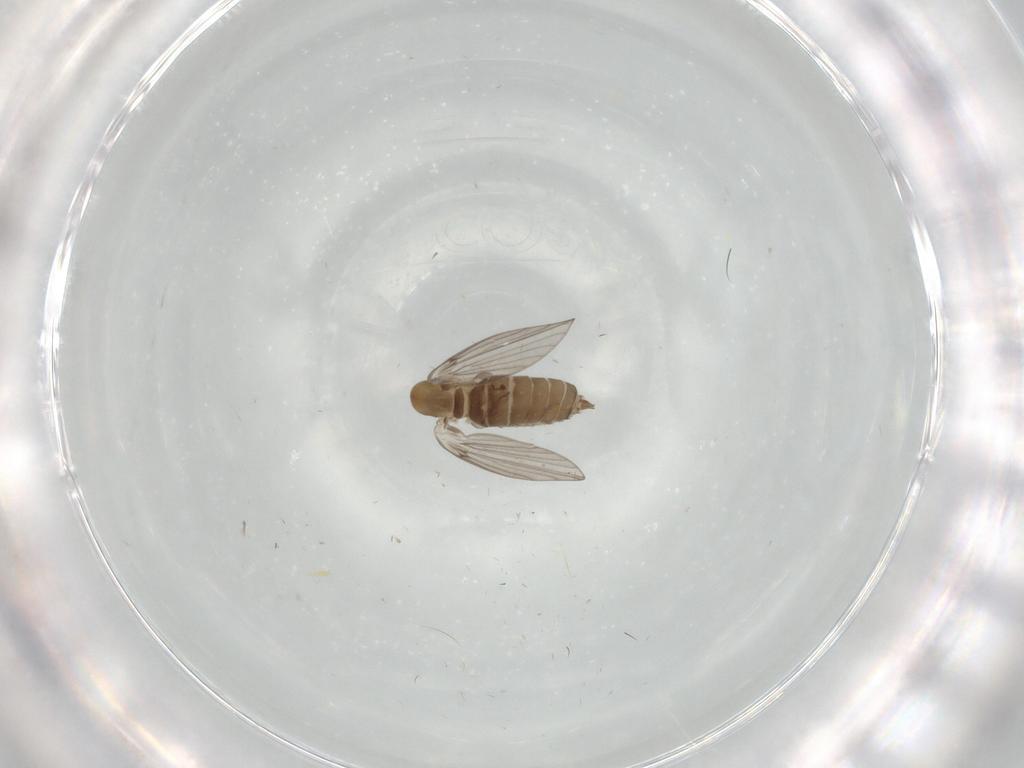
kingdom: Animalia
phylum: Arthropoda
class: Insecta
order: Diptera
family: Psychodidae
